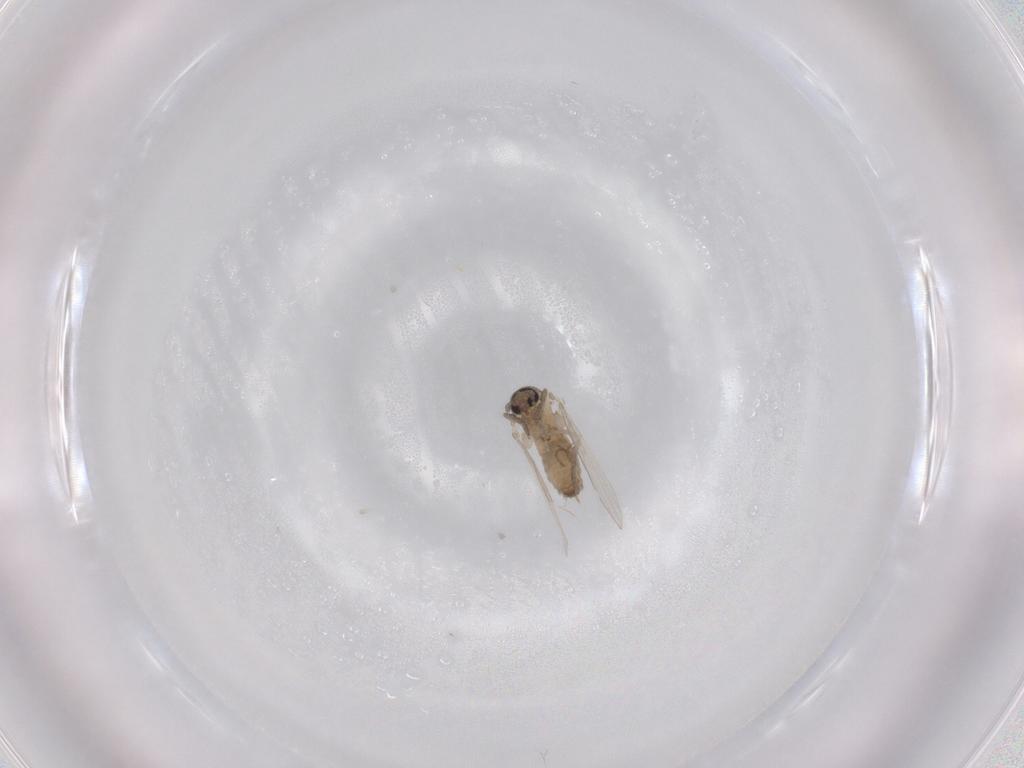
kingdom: Animalia
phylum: Arthropoda
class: Insecta
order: Diptera
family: Psychodidae
